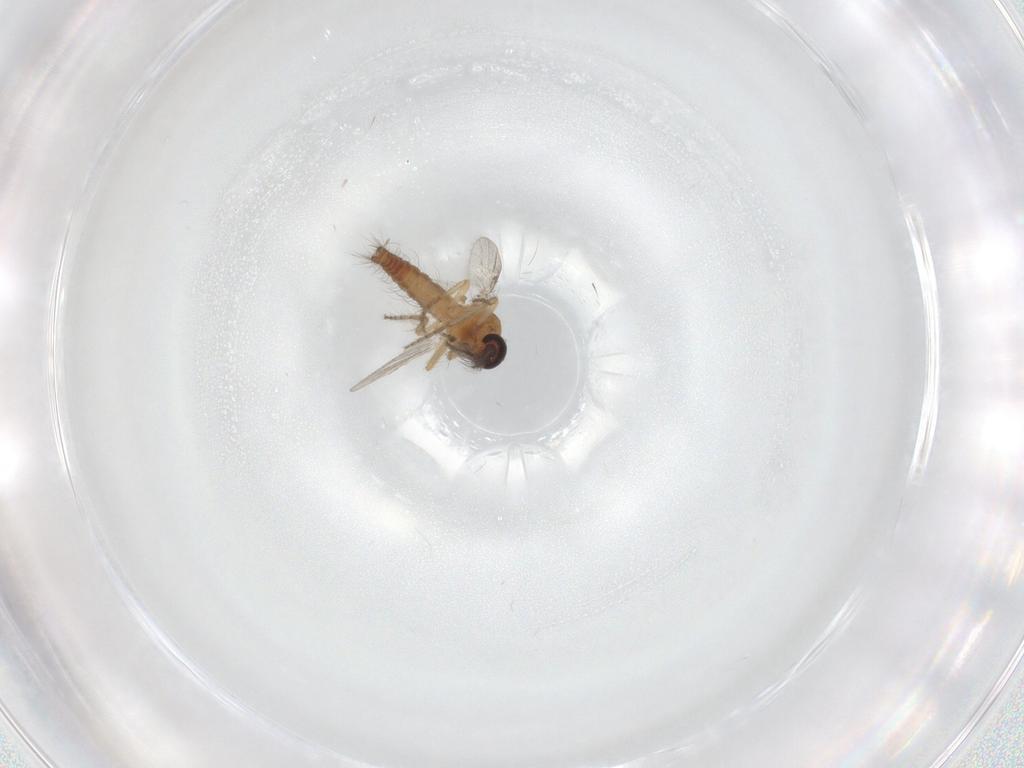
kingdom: Animalia
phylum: Arthropoda
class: Insecta
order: Diptera
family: Ceratopogonidae
